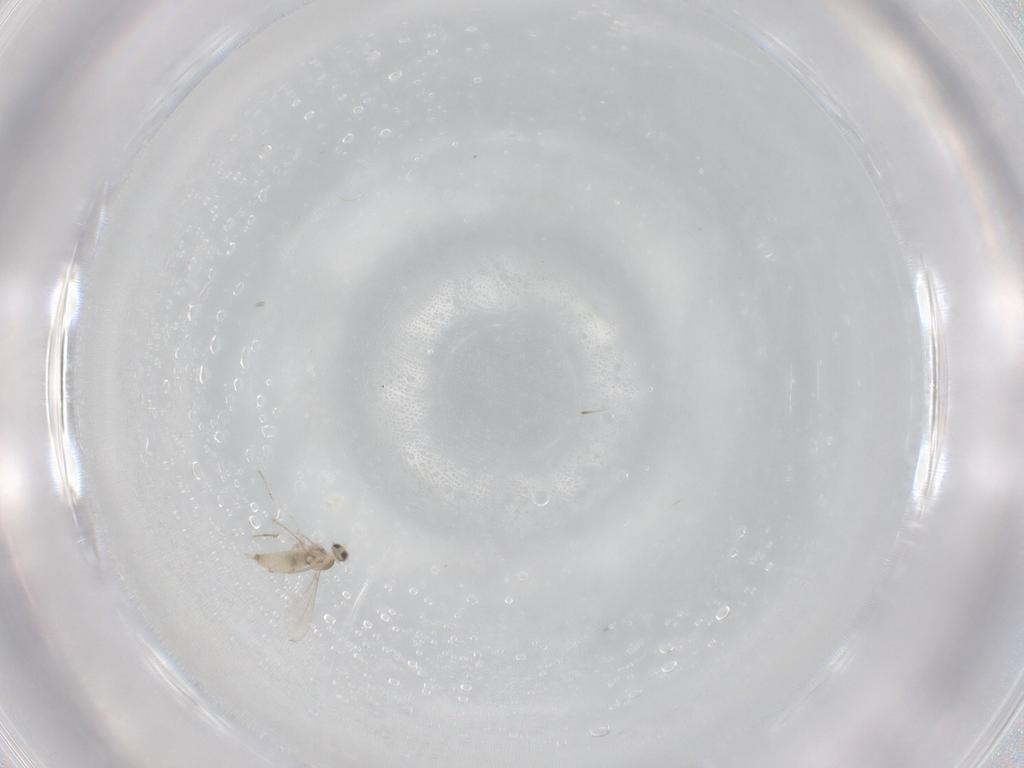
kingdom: Animalia
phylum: Arthropoda
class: Insecta
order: Diptera
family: Cecidomyiidae
